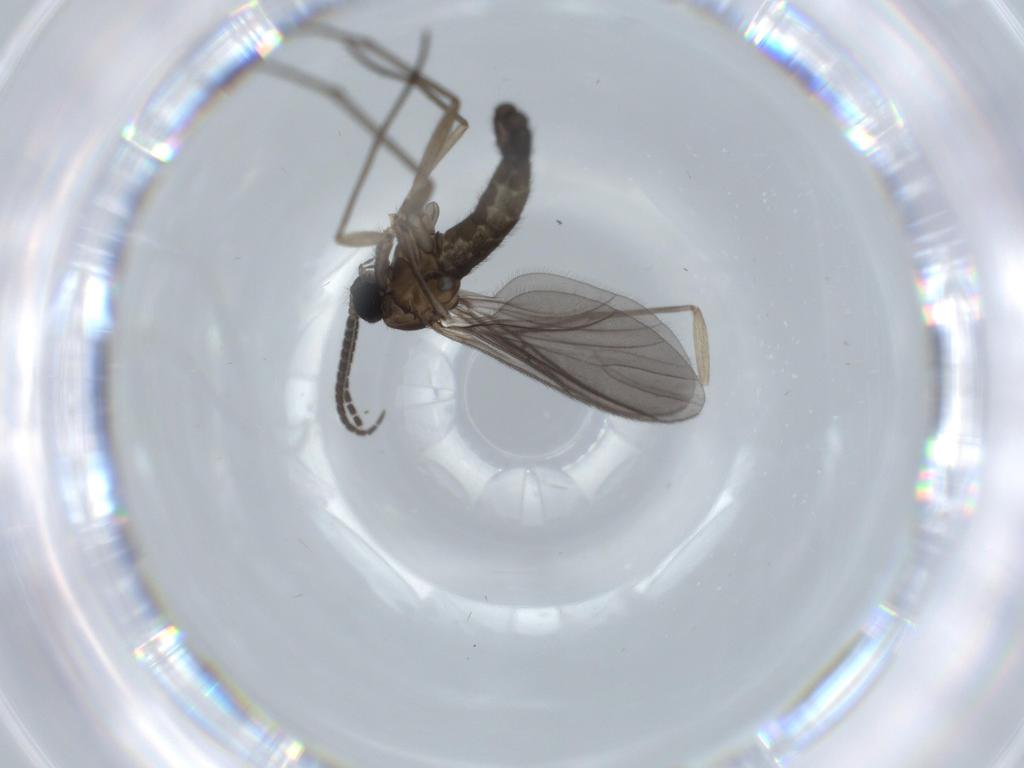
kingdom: Animalia
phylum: Arthropoda
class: Insecta
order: Diptera
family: Sciaridae
